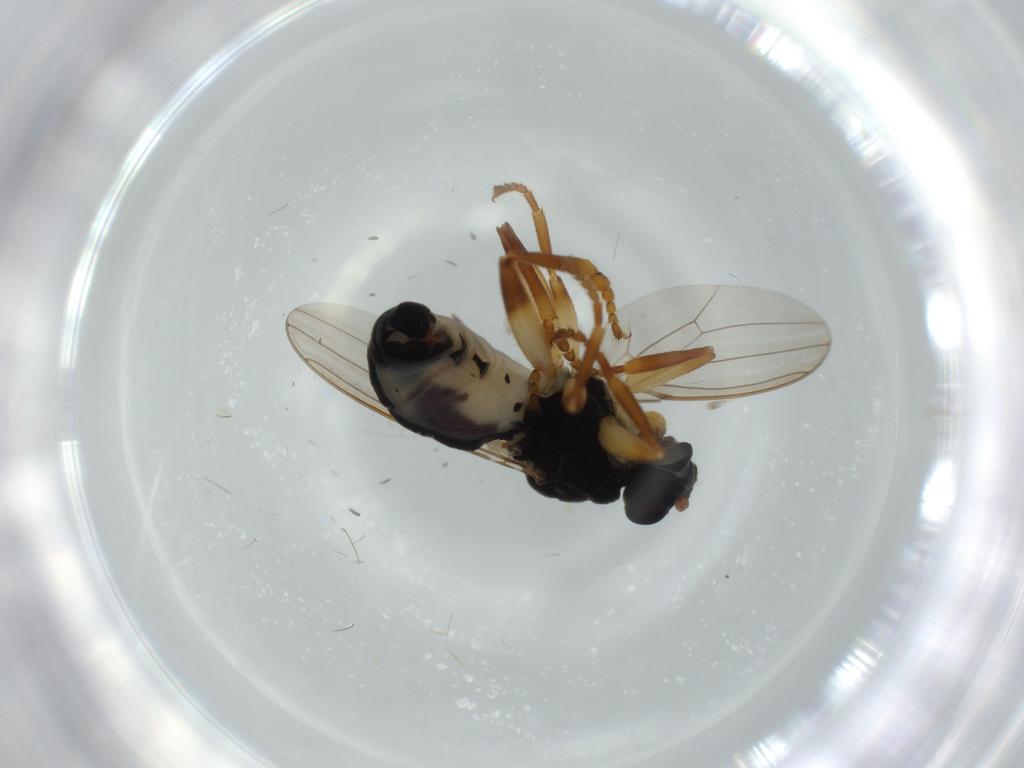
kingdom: Animalia
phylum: Arthropoda
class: Insecta
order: Diptera
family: Sphaeroceridae
